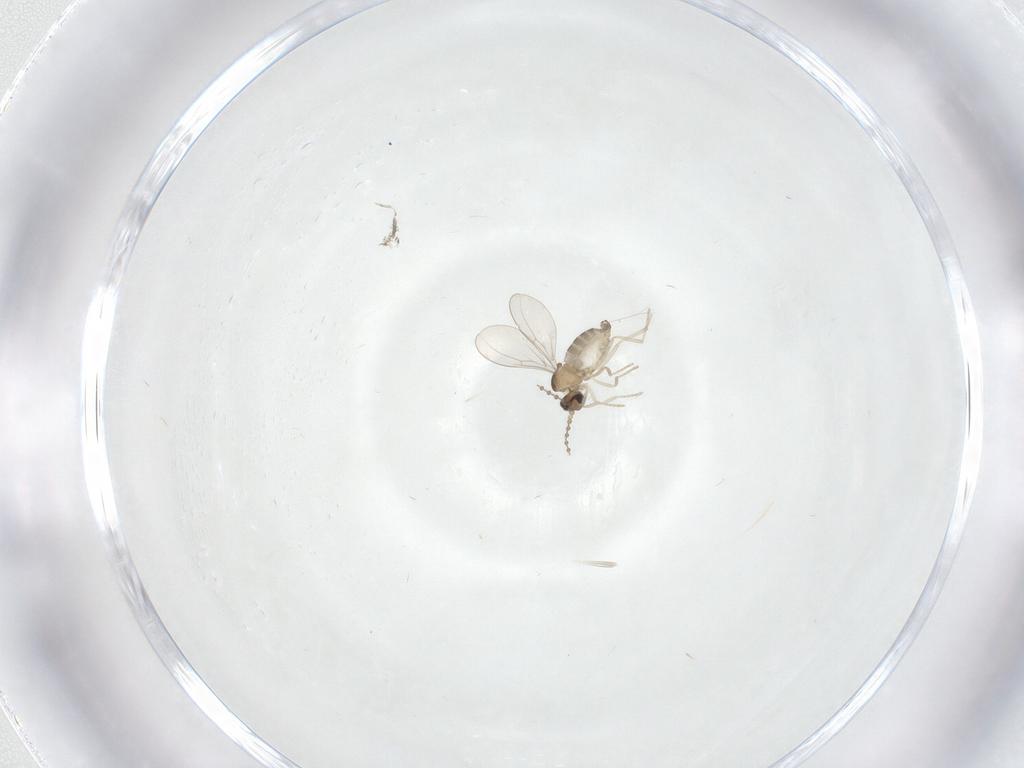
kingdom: Animalia
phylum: Arthropoda
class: Insecta
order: Diptera
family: Cecidomyiidae
